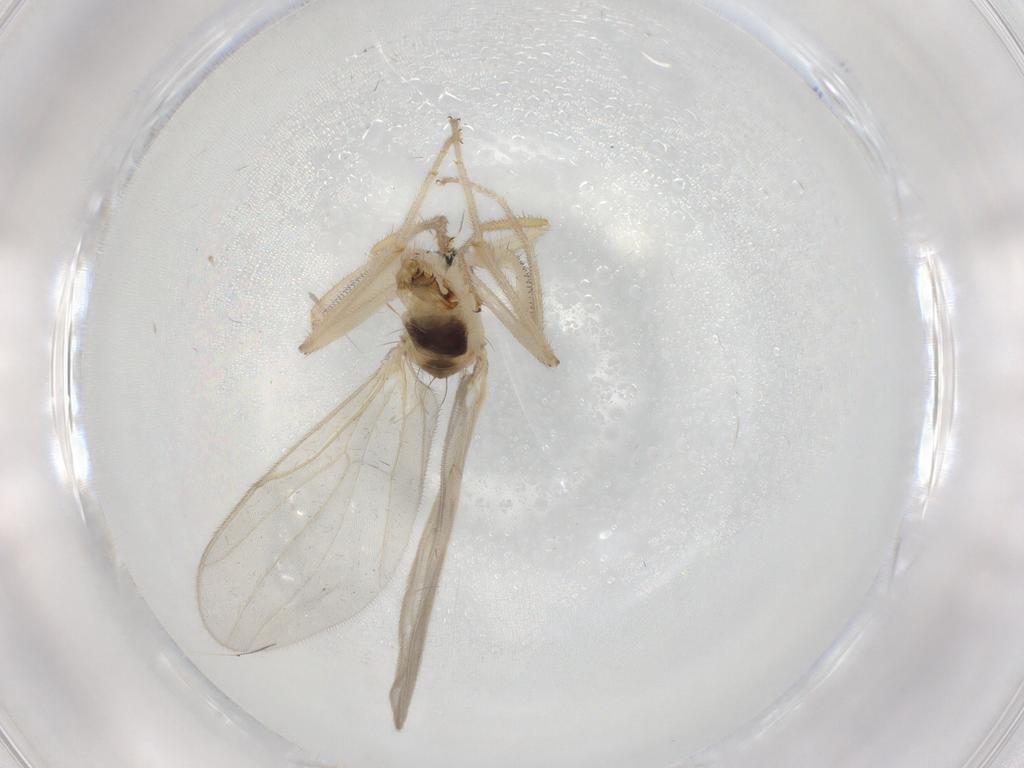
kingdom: Animalia
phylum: Arthropoda
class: Insecta
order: Diptera
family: Hybotidae
